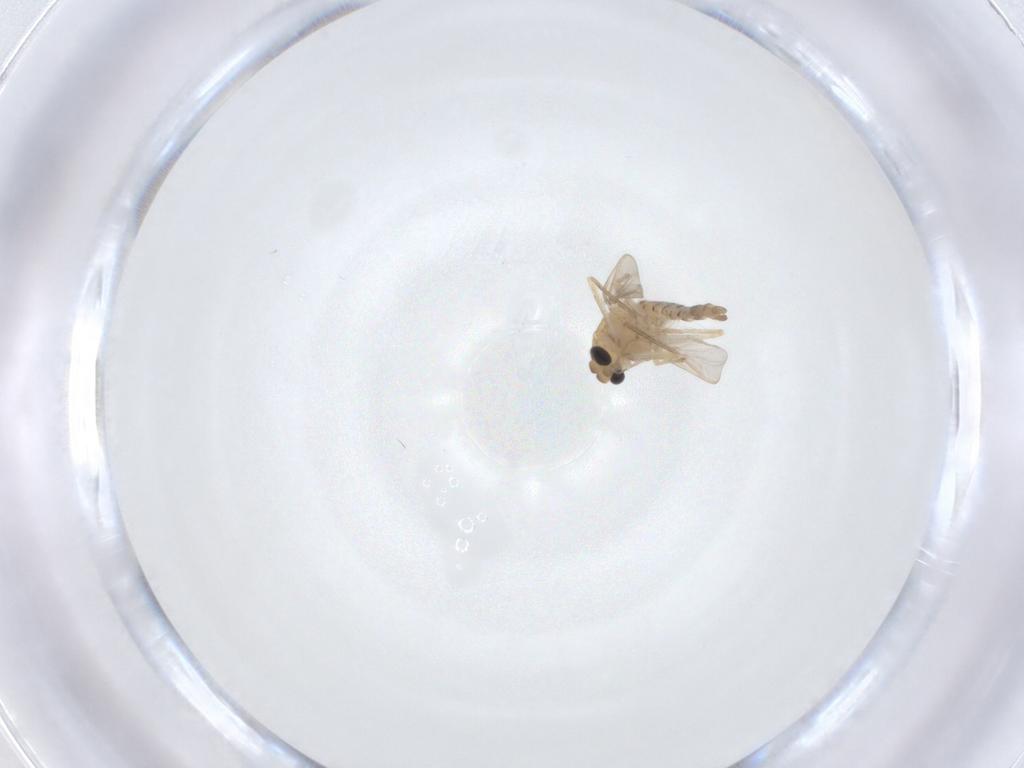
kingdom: Animalia
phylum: Arthropoda
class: Insecta
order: Diptera
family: Chironomidae
